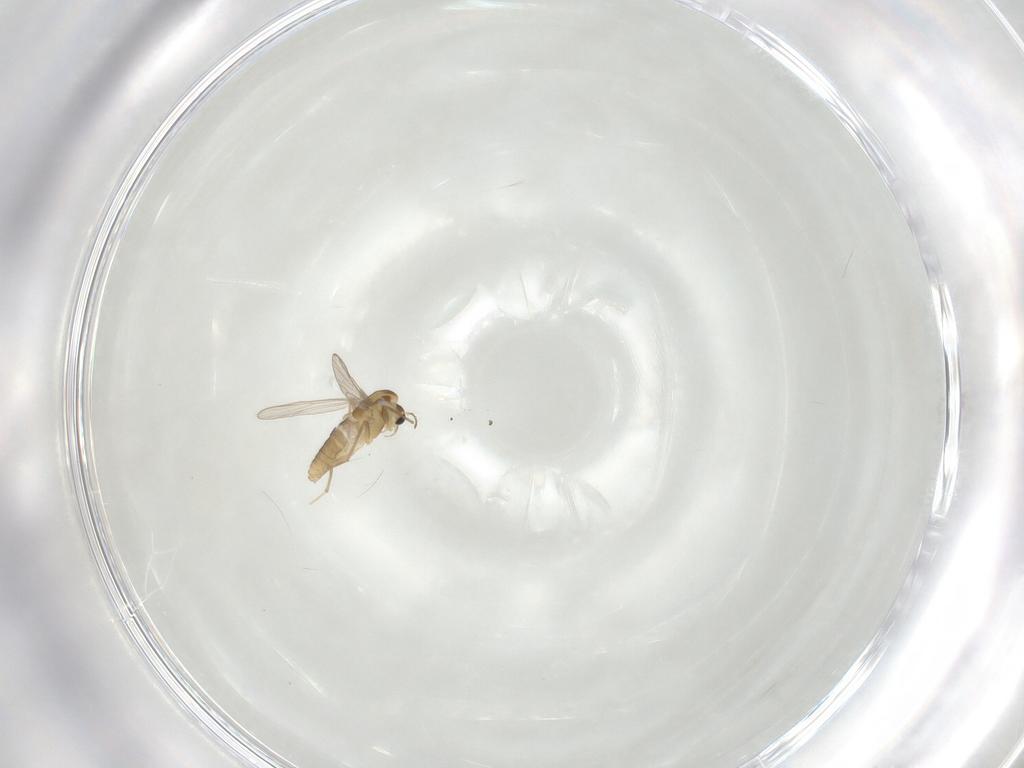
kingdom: Animalia
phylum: Arthropoda
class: Insecta
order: Diptera
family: Chironomidae
